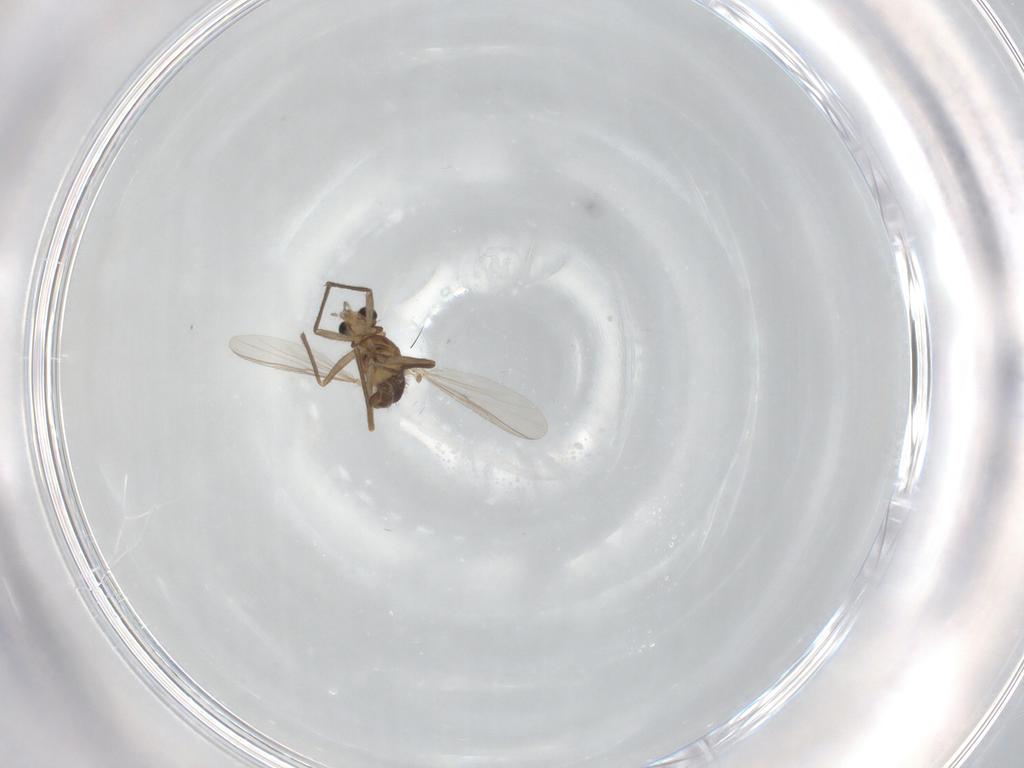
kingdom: Animalia
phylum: Arthropoda
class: Insecta
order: Diptera
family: Chironomidae
